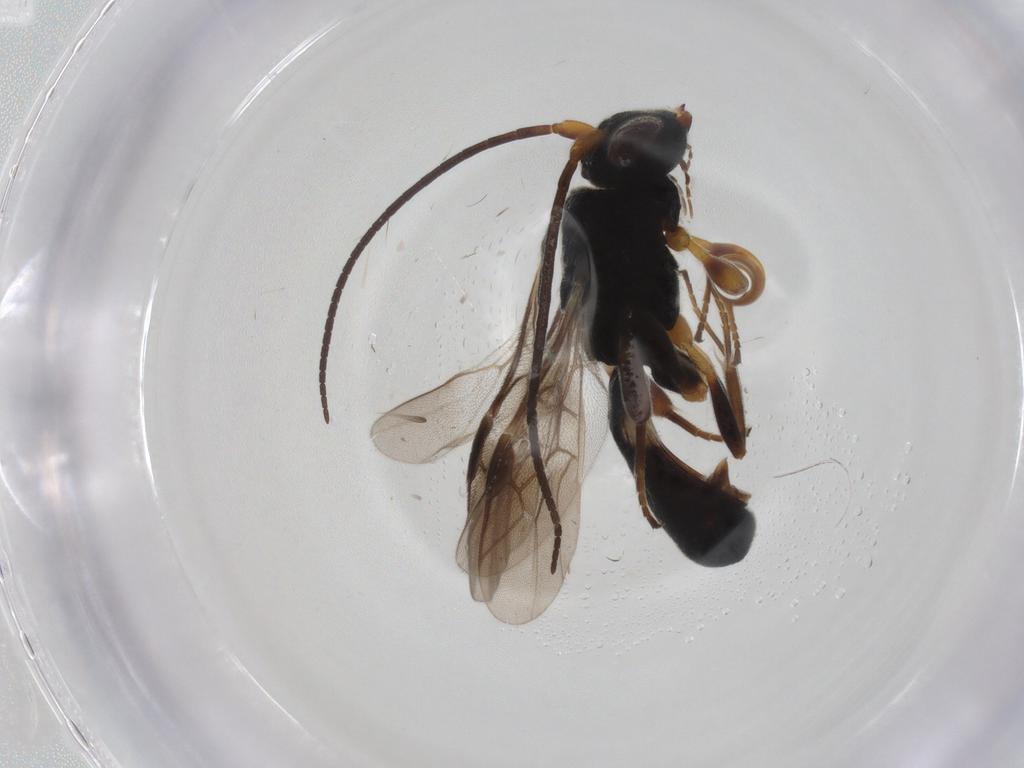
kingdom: Animalia
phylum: Arthropoda
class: Insecta
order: Hymenoptera
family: Braconidae
